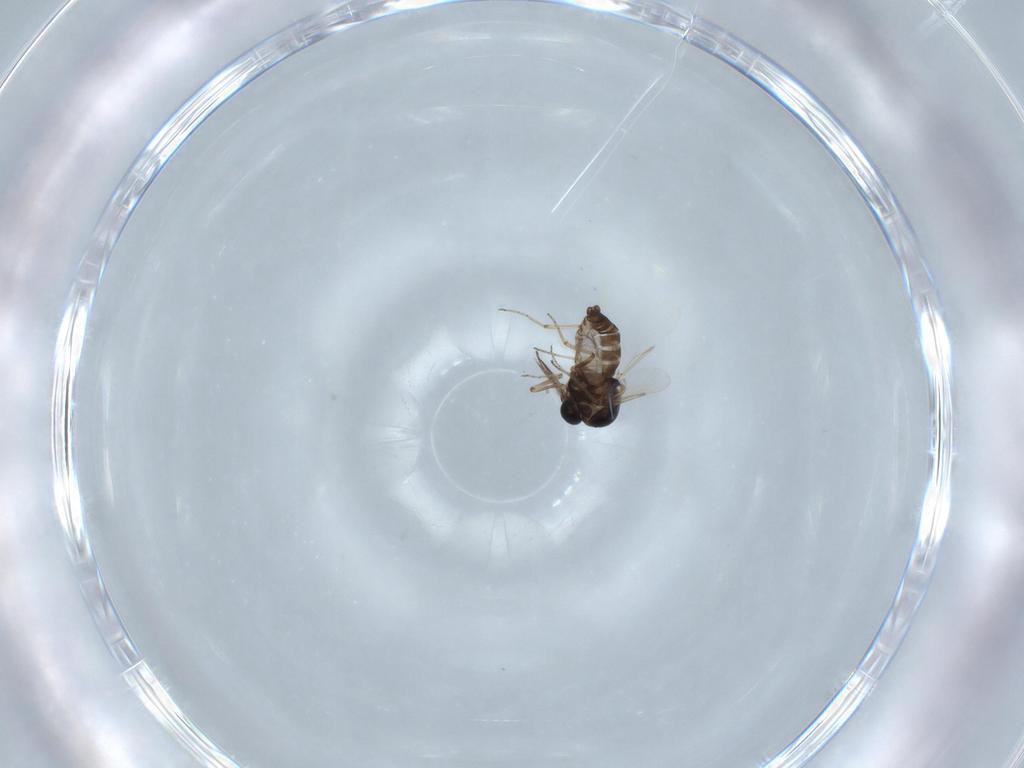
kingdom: Animalia
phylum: Arthropoda
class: Insecta
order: Diptera
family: Ceratopogonidae
